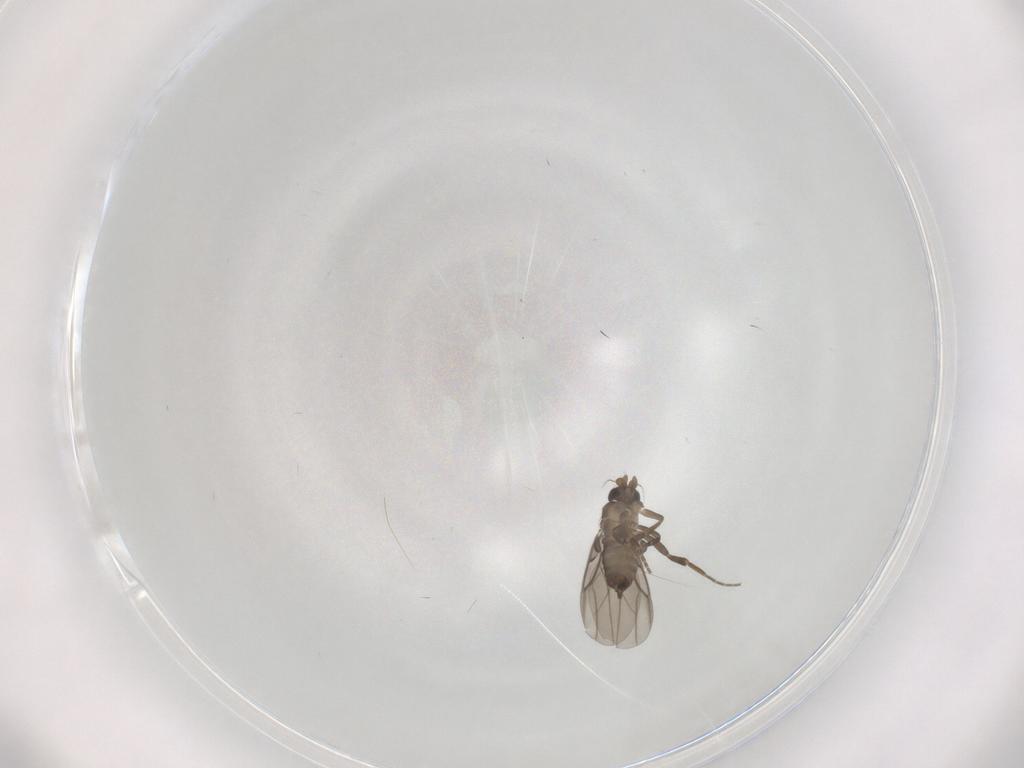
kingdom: Animalia
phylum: Arthropoda
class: Insecta
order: Diptera
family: Phoridae
